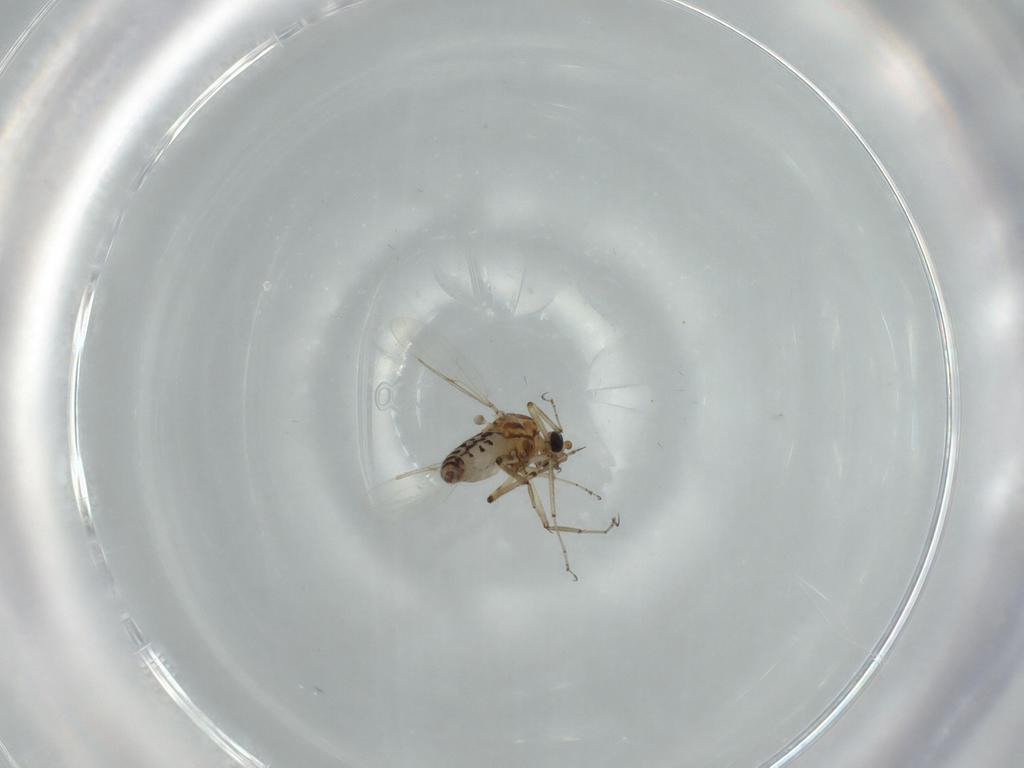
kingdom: Animalia
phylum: Arthropoda
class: Insecta
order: Diptera
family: Ceratopogonidae
